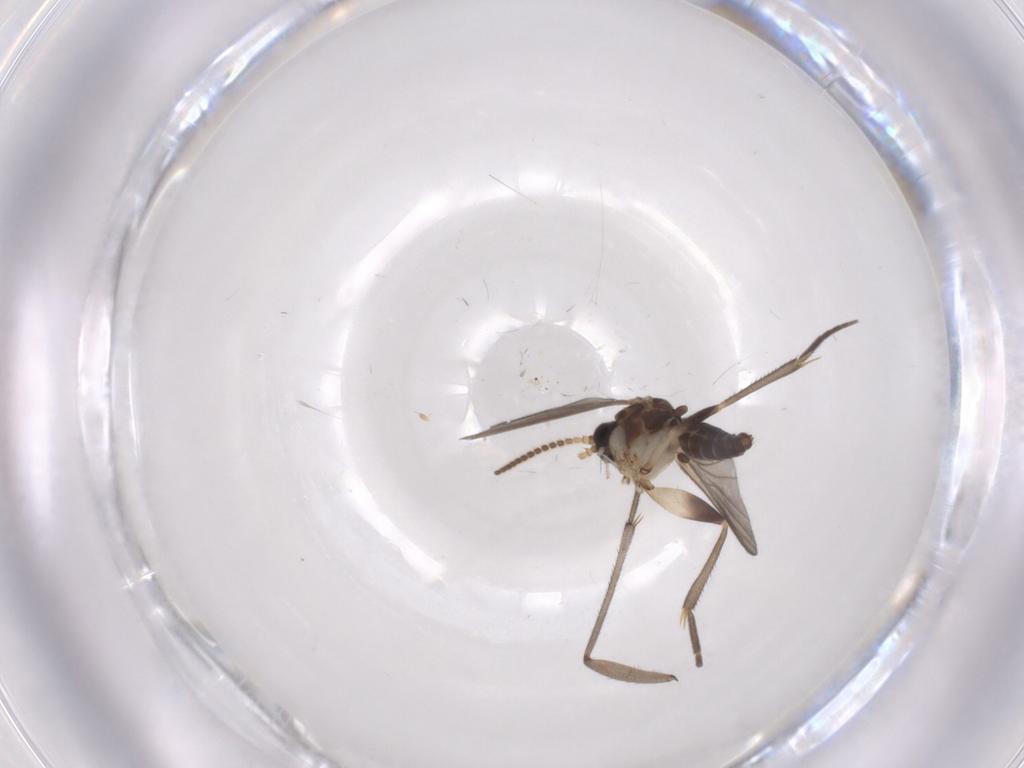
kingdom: Animalia
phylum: Arthropoda
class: Insecta
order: Diptera
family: Sciaridae
